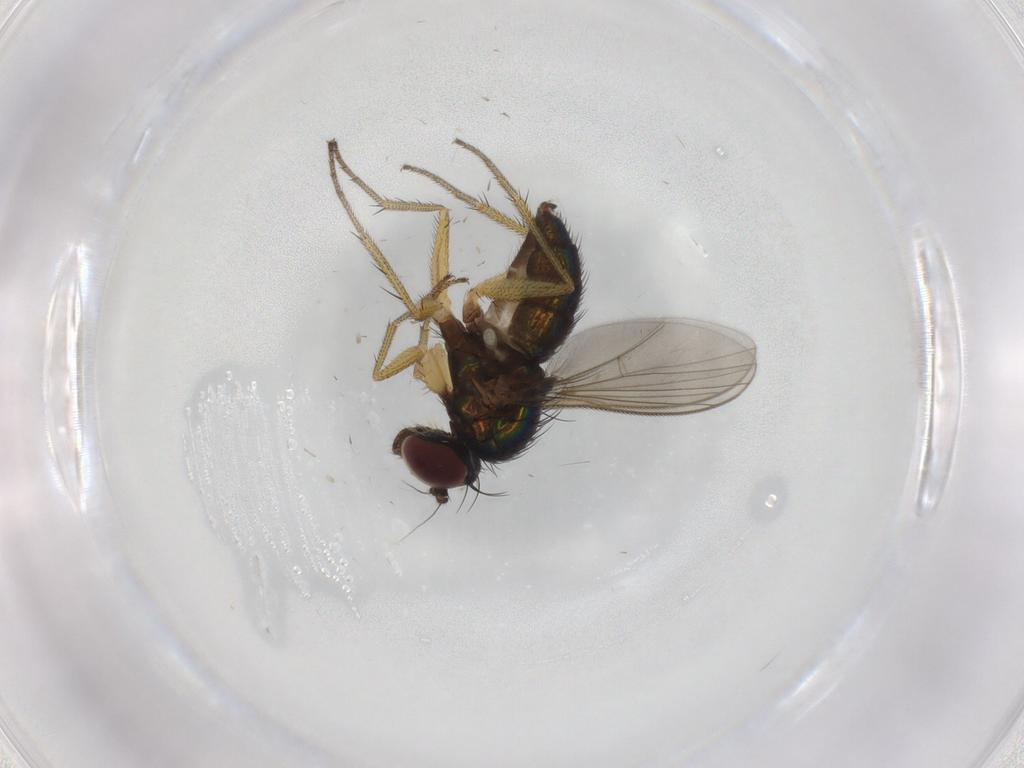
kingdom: Animalia
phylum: Arthropoda
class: Insecta
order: Diptera
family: Dolichopodidae
